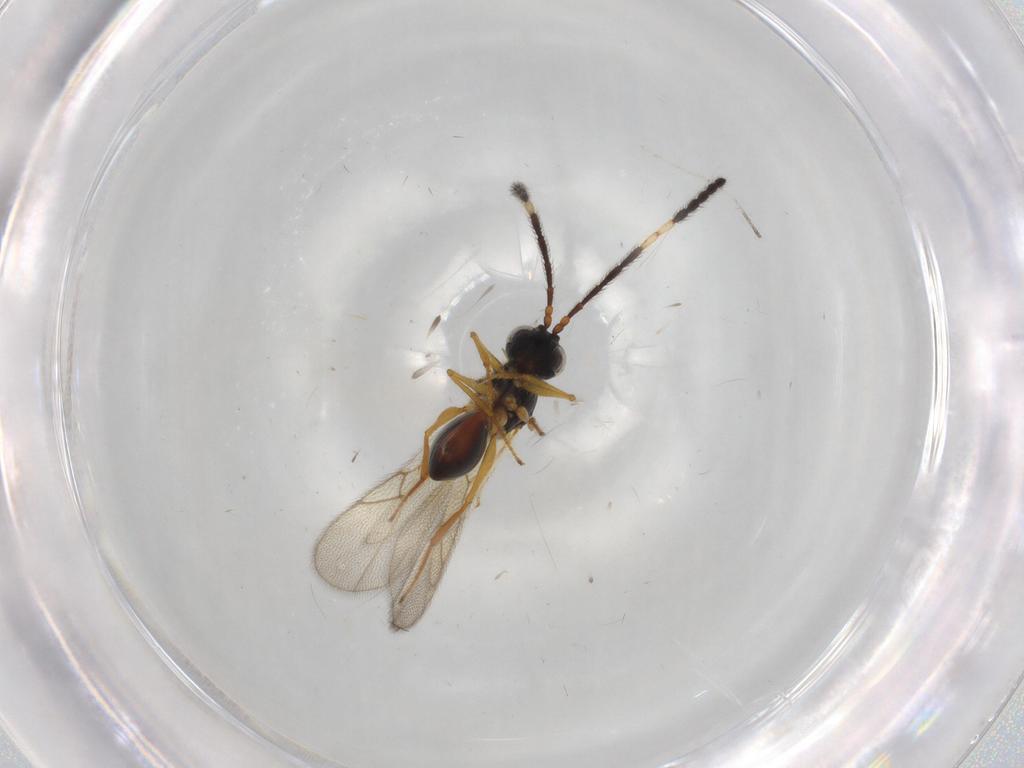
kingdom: Animalia
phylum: Arthropoda
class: Insecta
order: Hymenoptera
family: Figitidae
